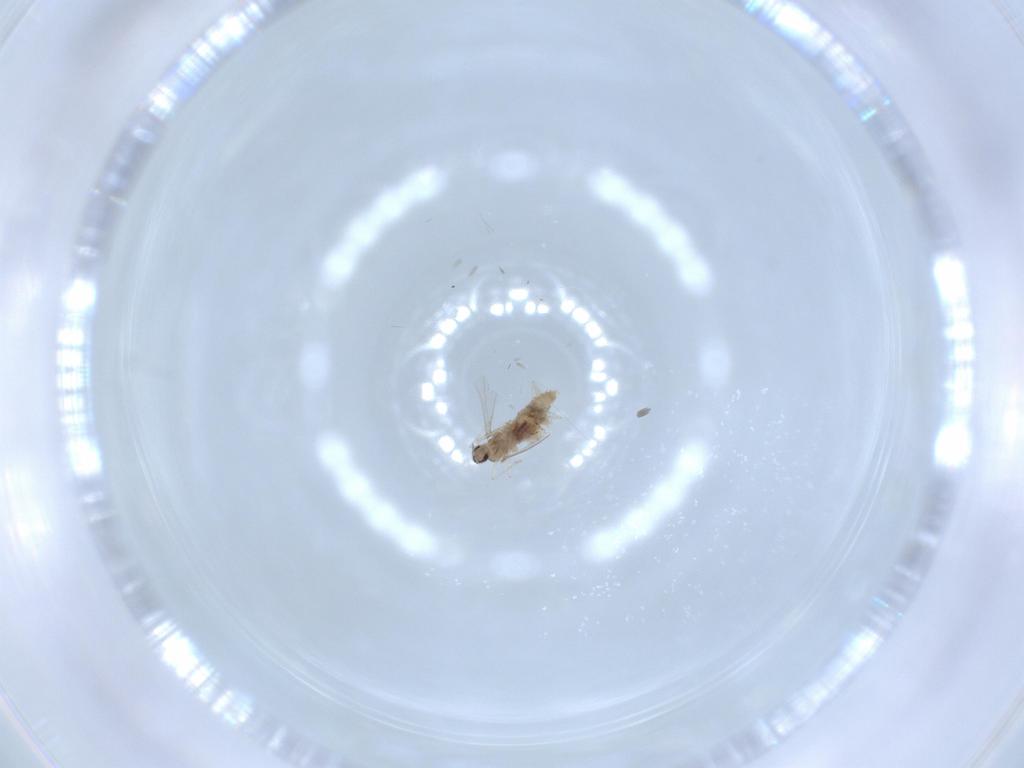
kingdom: Animalia
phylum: Arthropoda
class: Insecta
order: Diptera
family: Cecidomyiidae
